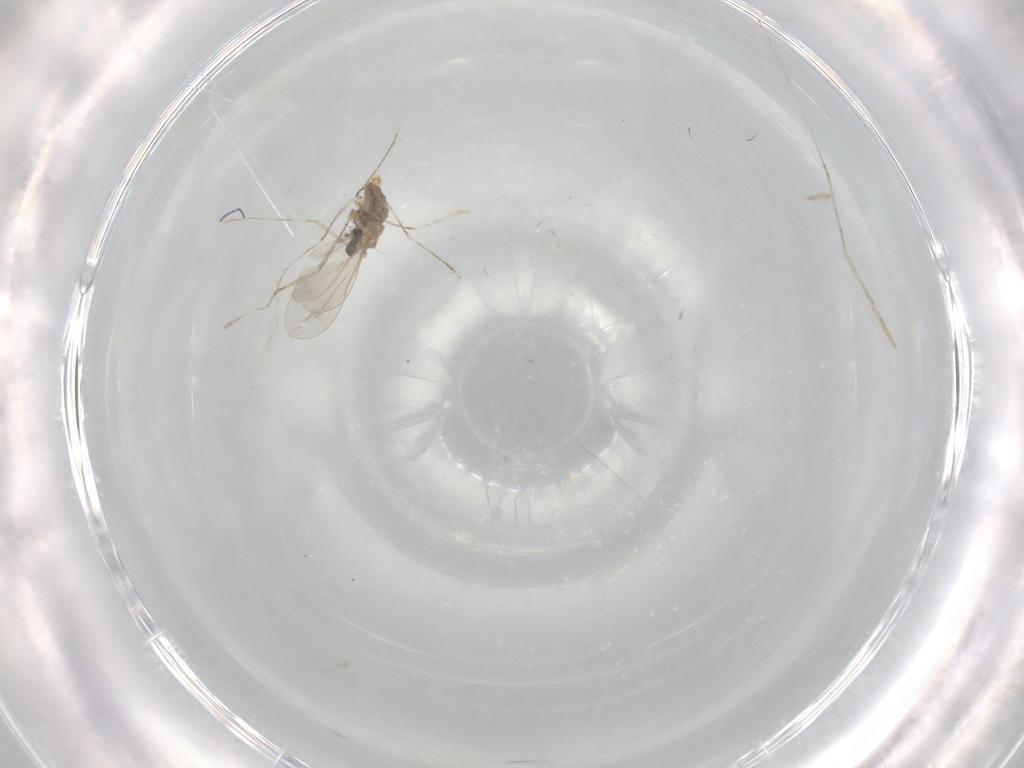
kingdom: Animalia
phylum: Arthropoda
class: Insecta
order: Diptera
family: Cecidomyiidae
